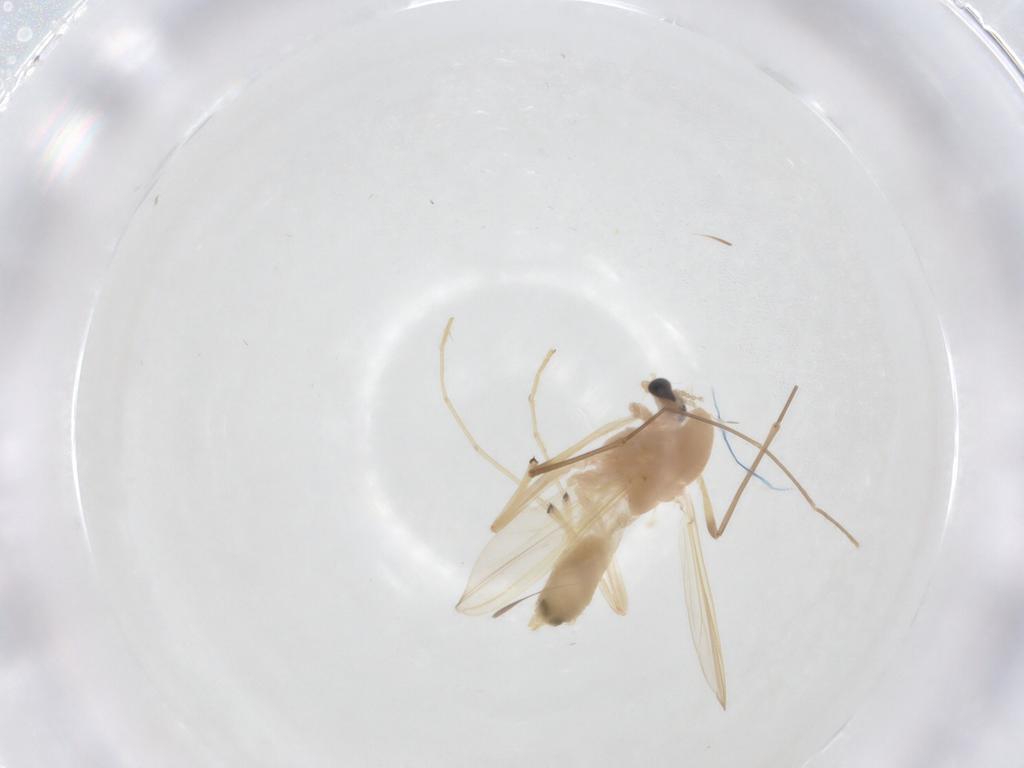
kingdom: Animalia
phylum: Arthropoda
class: Insecta
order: Diptera
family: Chironomidae
